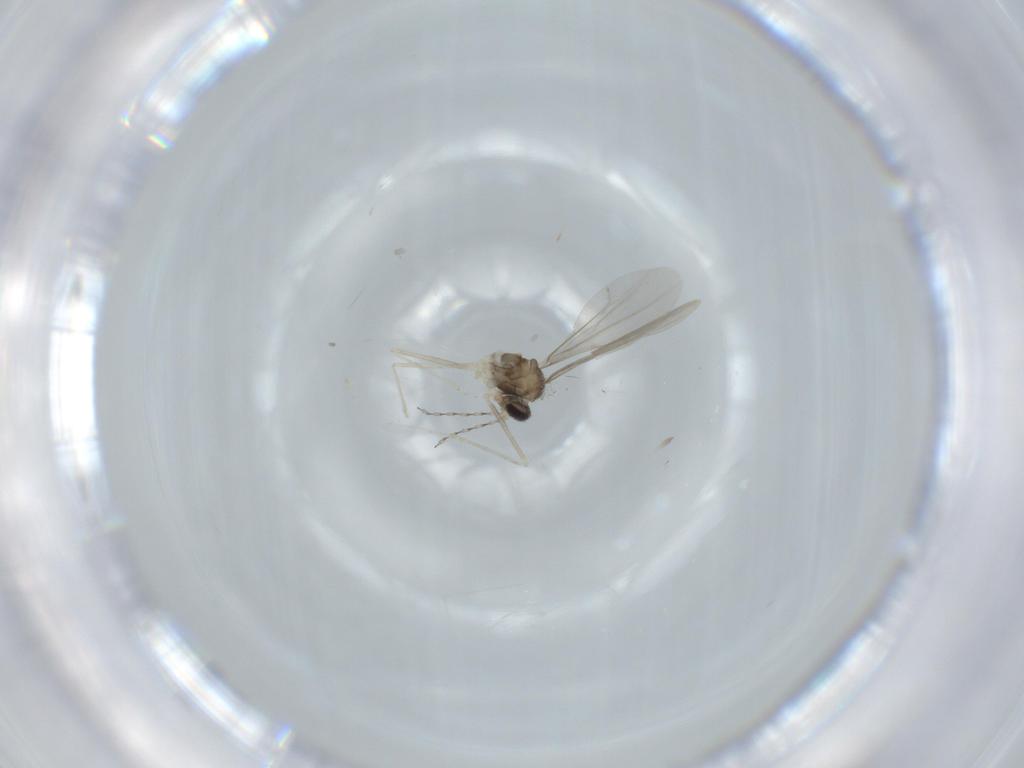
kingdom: Animalia
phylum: Arthropoda
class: Insecta
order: Diptera
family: Cecidomyiidae
